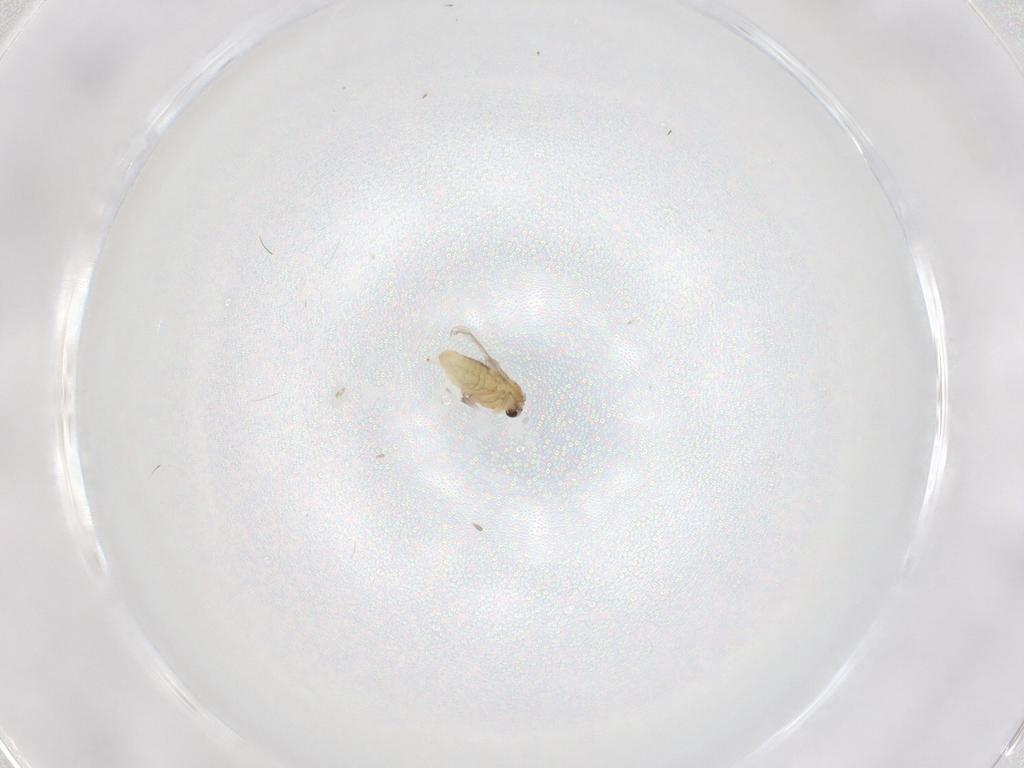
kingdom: Animalia
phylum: Arthropoda
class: Insecta
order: Diptera
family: Chironomidae
